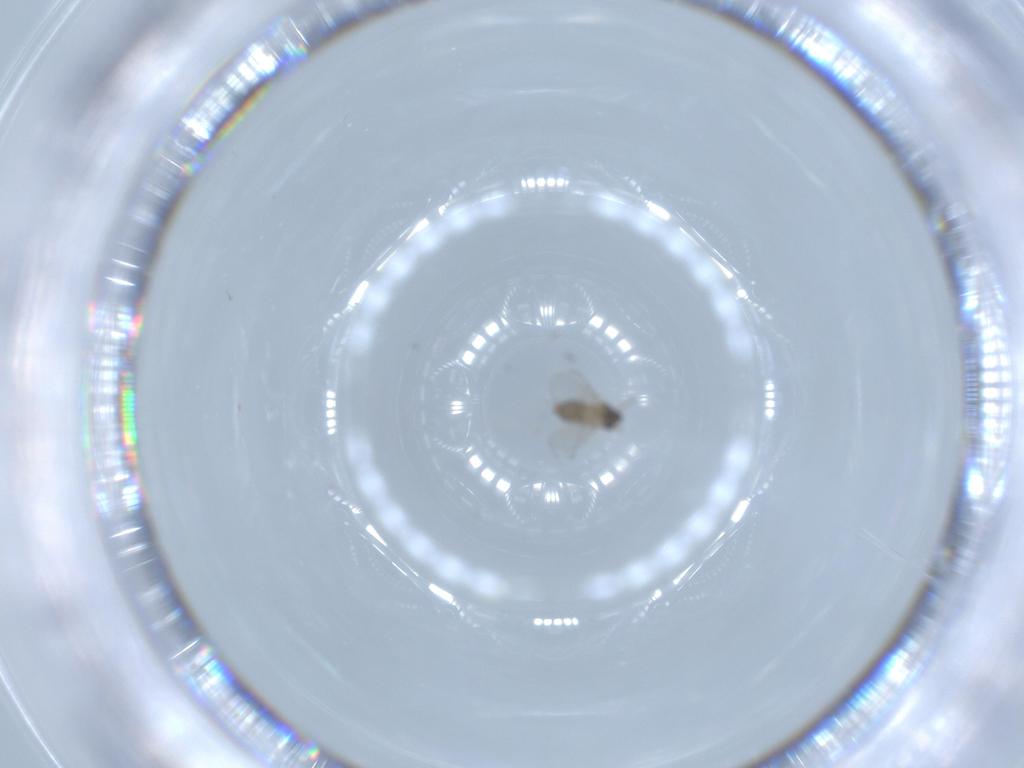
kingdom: Animalia
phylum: Arthropoda
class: Insecta
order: Diptera
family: Cecidomyiidae
